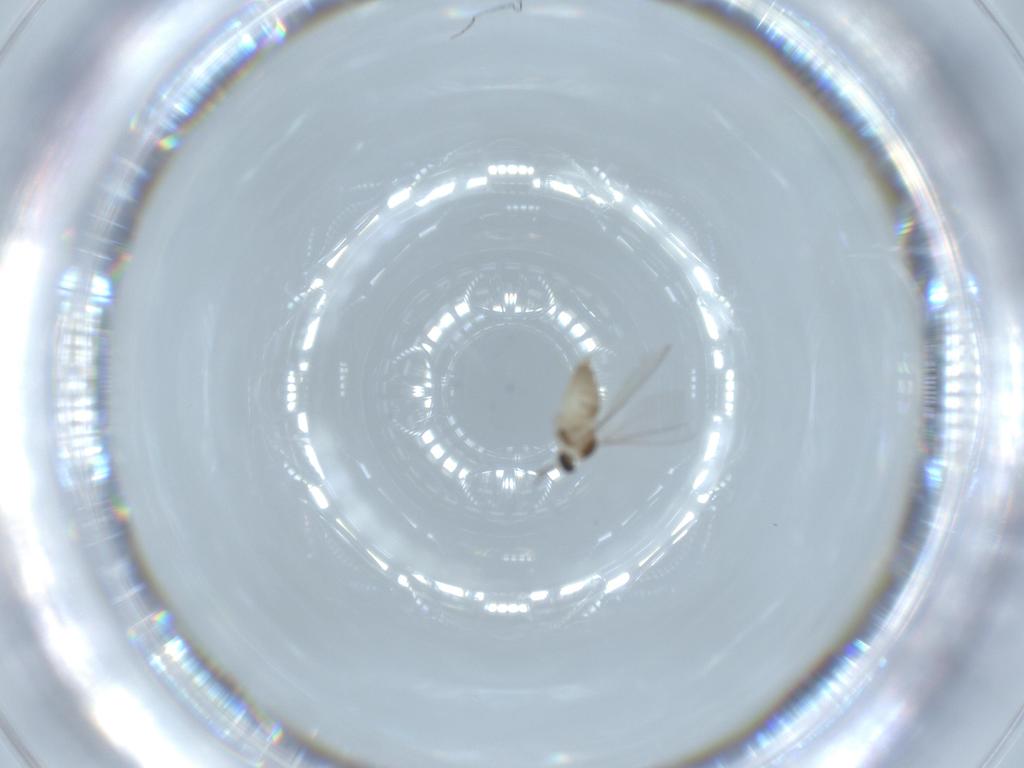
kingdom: Animalia
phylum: Arthropoda
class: Insecta
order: Diptera
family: Cecidomyiidae
